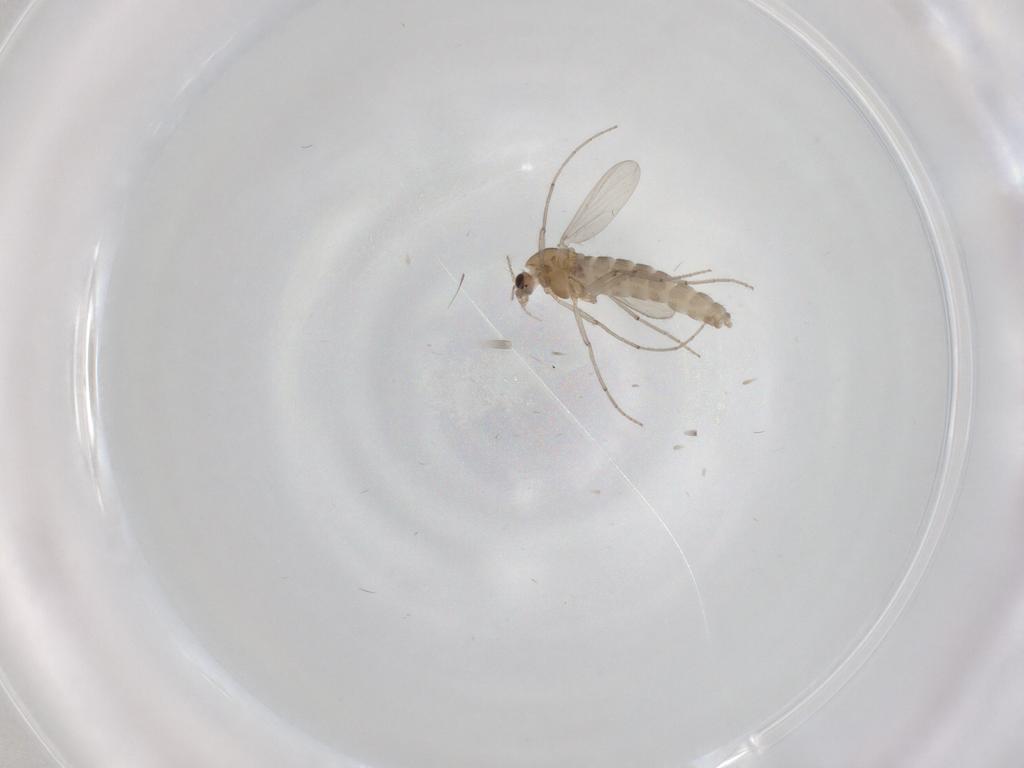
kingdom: Animalia
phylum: Arthropoda
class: Insecta
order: Diptera
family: Chironomidae
